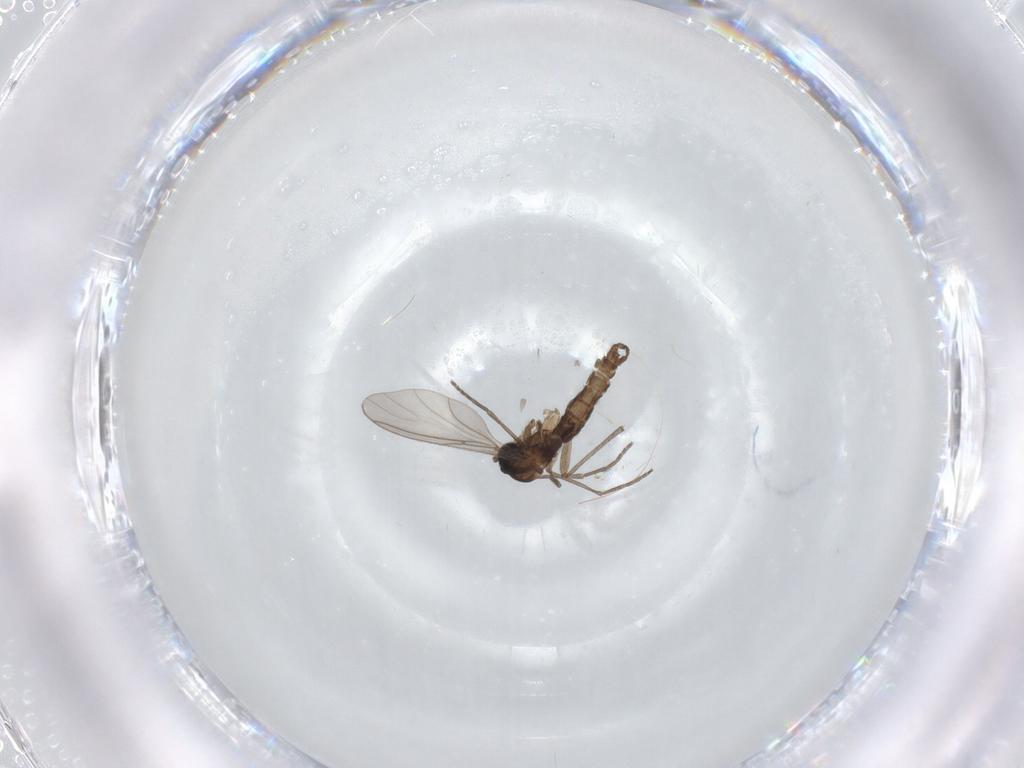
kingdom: Animalia
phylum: Arthropoda
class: Insecta
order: Diptera
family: Sciaridae
